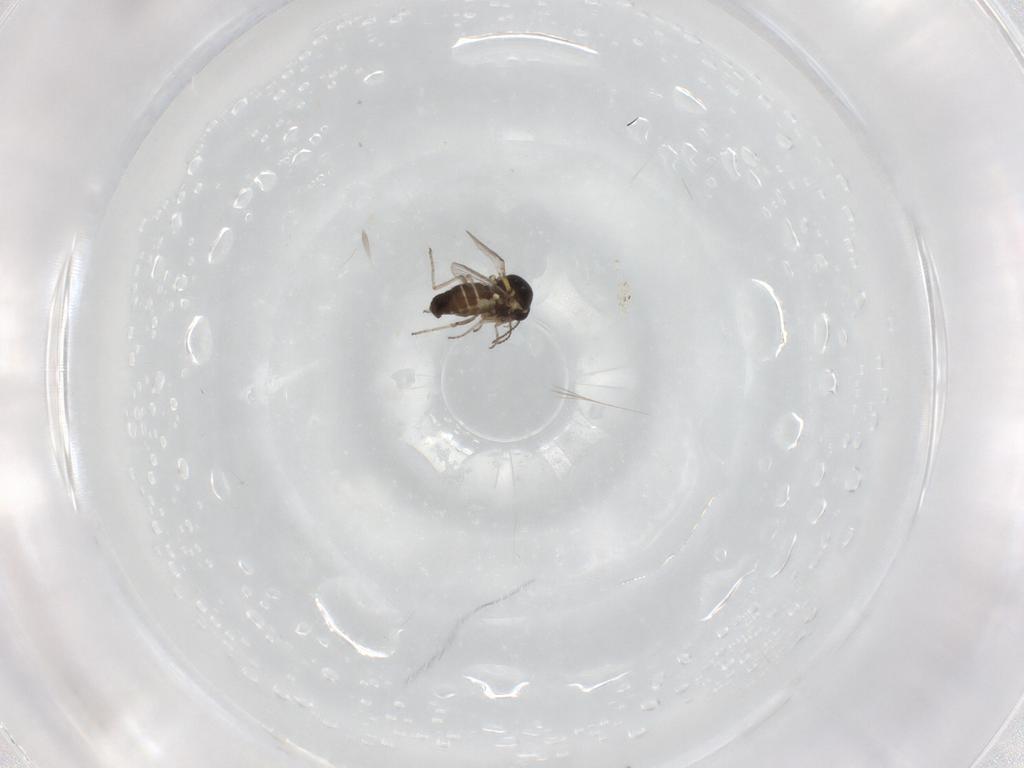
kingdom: Animalia
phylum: Arthropoda
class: Insecta
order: Diptera
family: Ceratopogonidae
